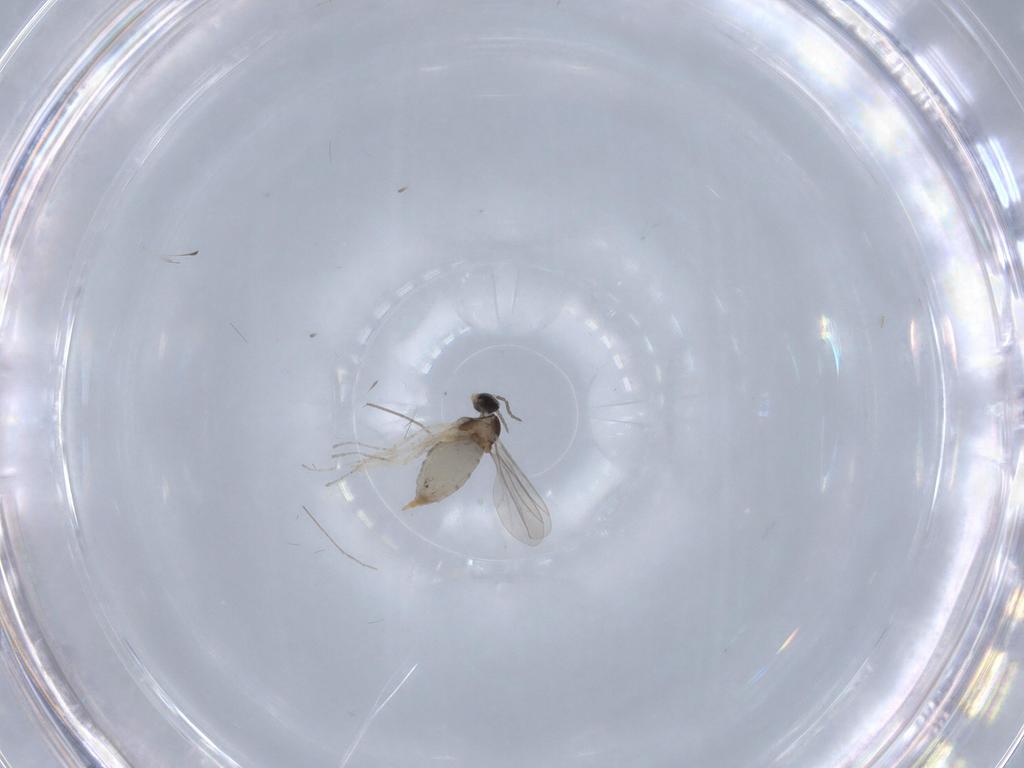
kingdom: Animalia
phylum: Arthropoda
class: Insecta
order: Diptera
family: Cecidomyiidae
